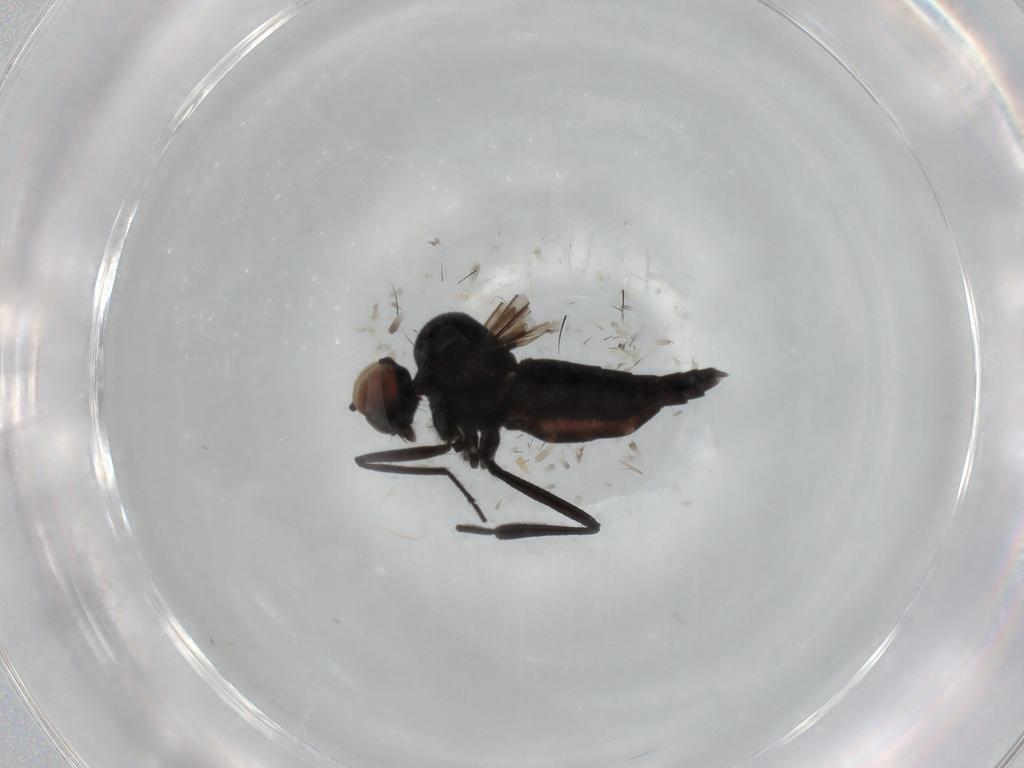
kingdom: Animalia
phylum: Arthropoda
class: Insecta
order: Diptera
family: Hybotidae
